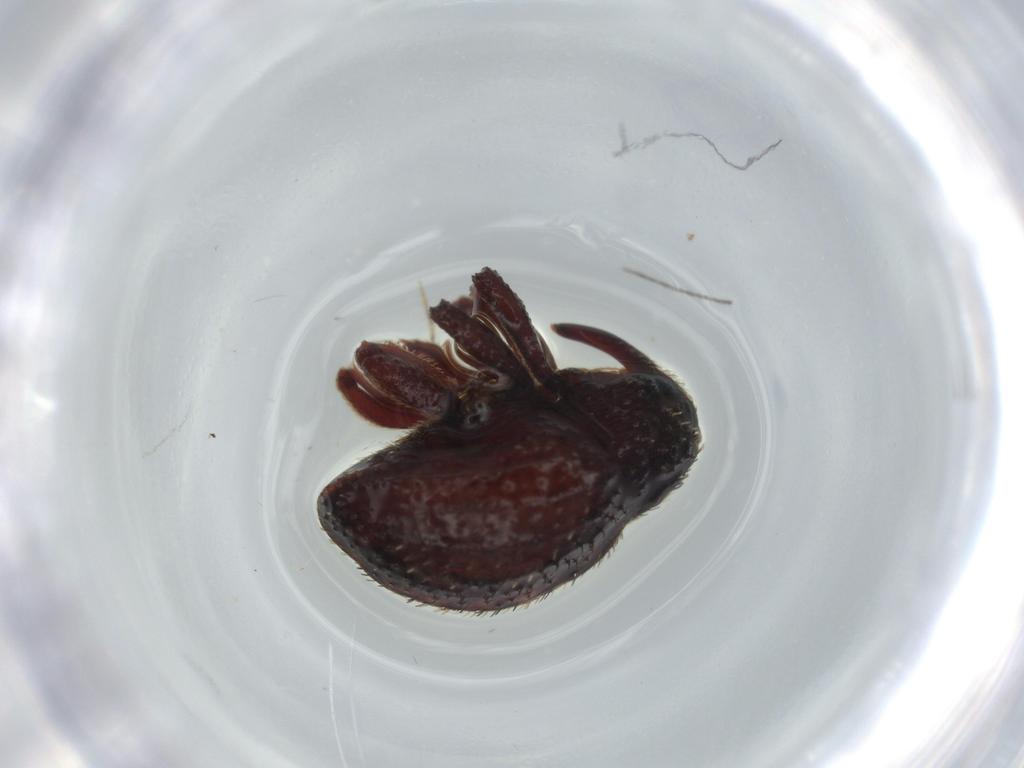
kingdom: Animalia
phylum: Arthropoda
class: Insecta
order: Coleoptera
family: Curculionidae
